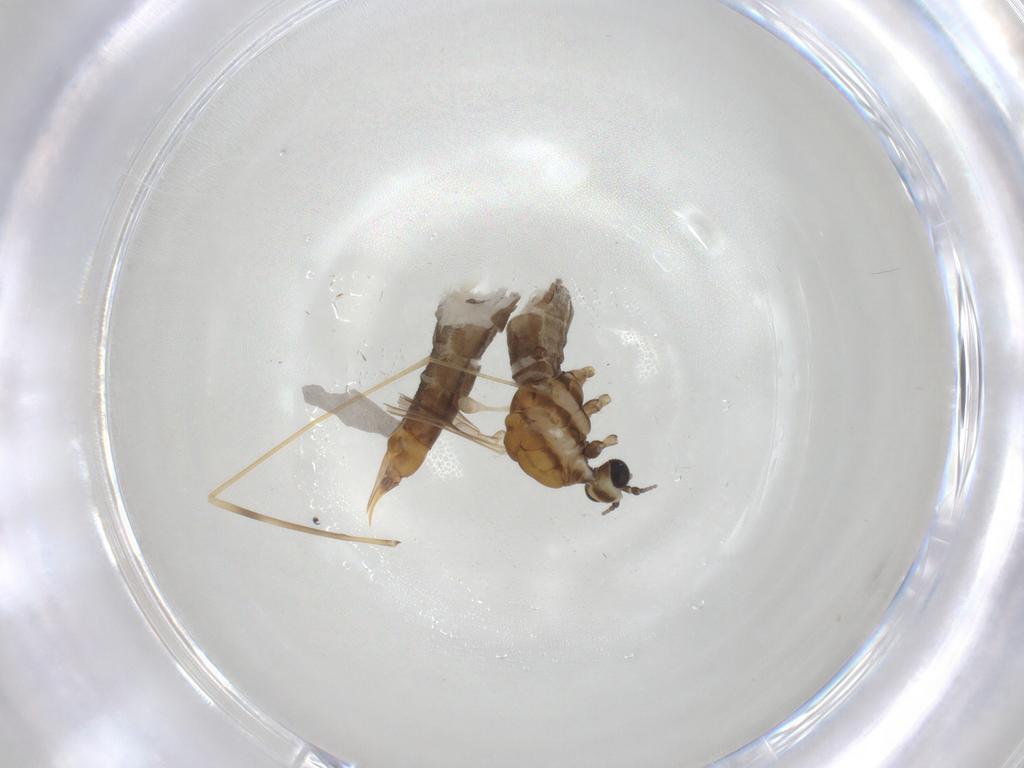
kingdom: Animalia
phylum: Arthropoda
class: Insecta
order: Diptera
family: Limoniidae
